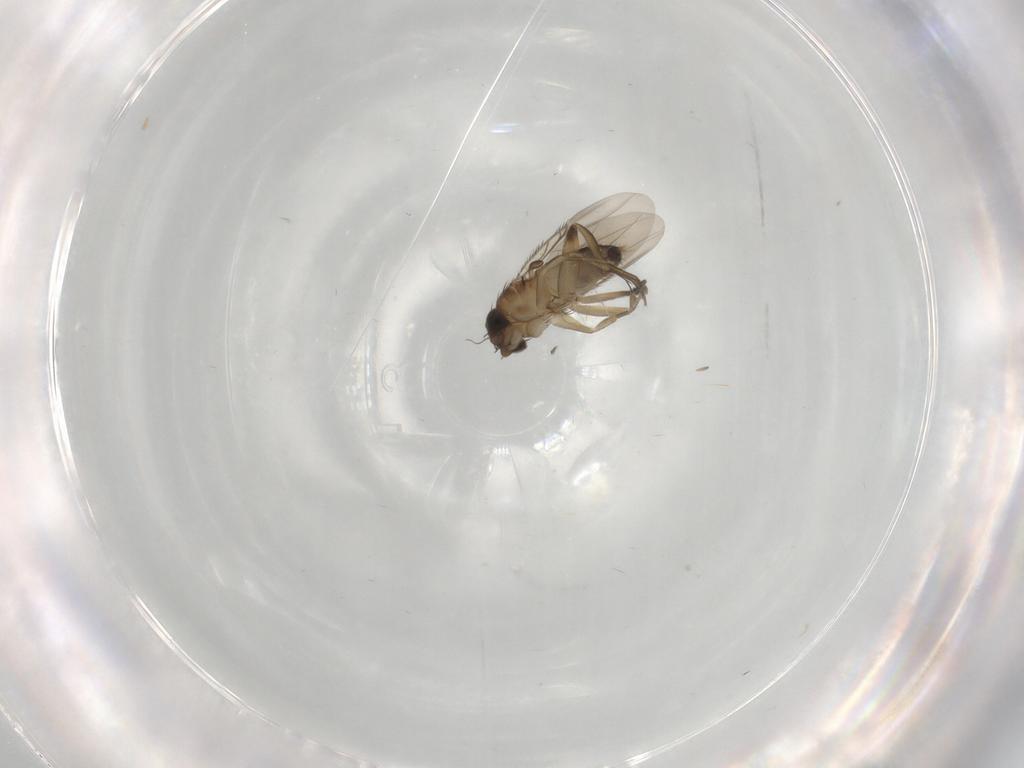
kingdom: Animalia
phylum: Arthropoda
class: Insecta
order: Diptera
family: Phoridae
